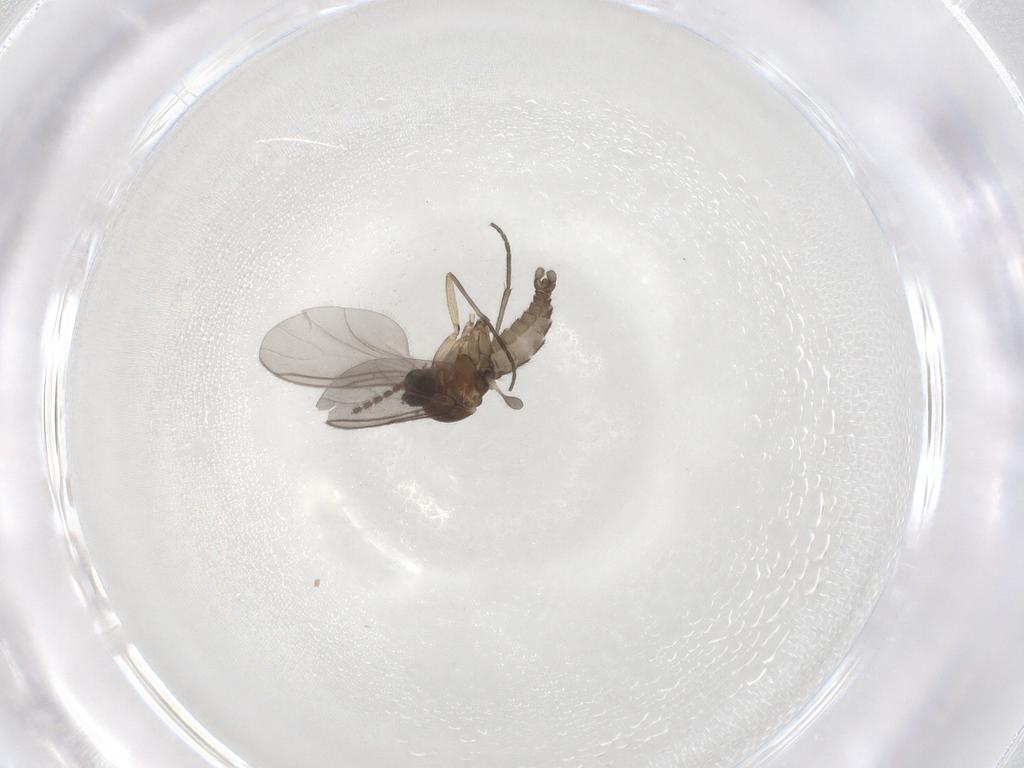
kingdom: Animalia
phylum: Arthropoda
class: Insecta
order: Diptera
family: Sciaridae
